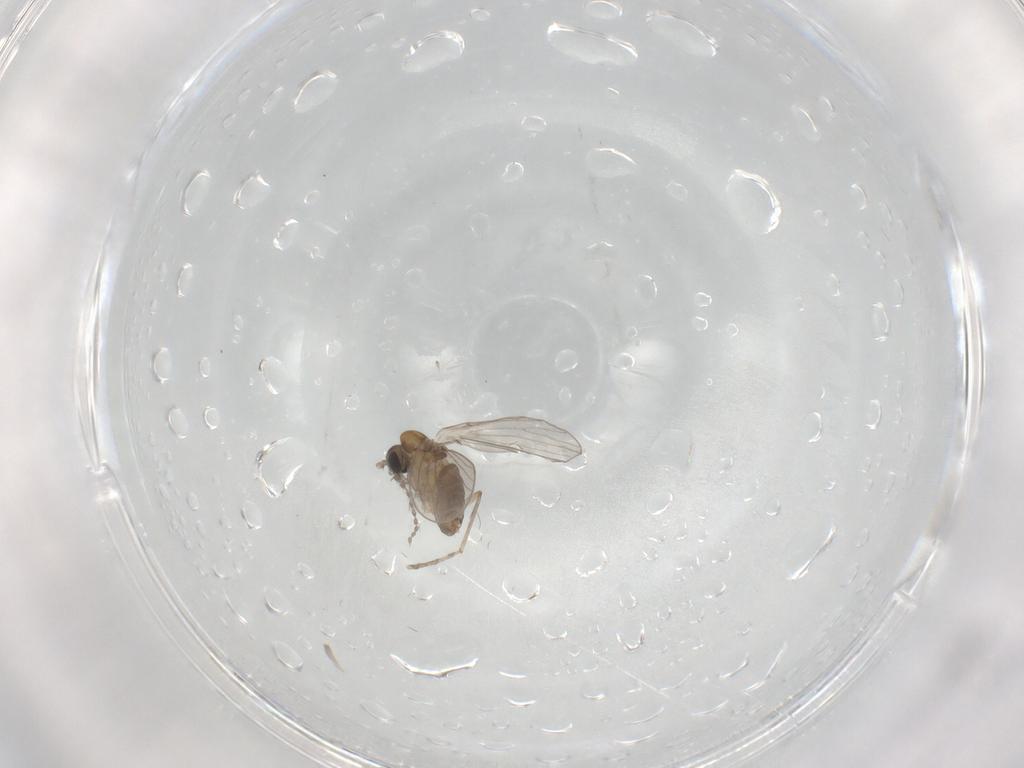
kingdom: Animalia
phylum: Arthropoda
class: Insecta
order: Diptera
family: Psychodidae
